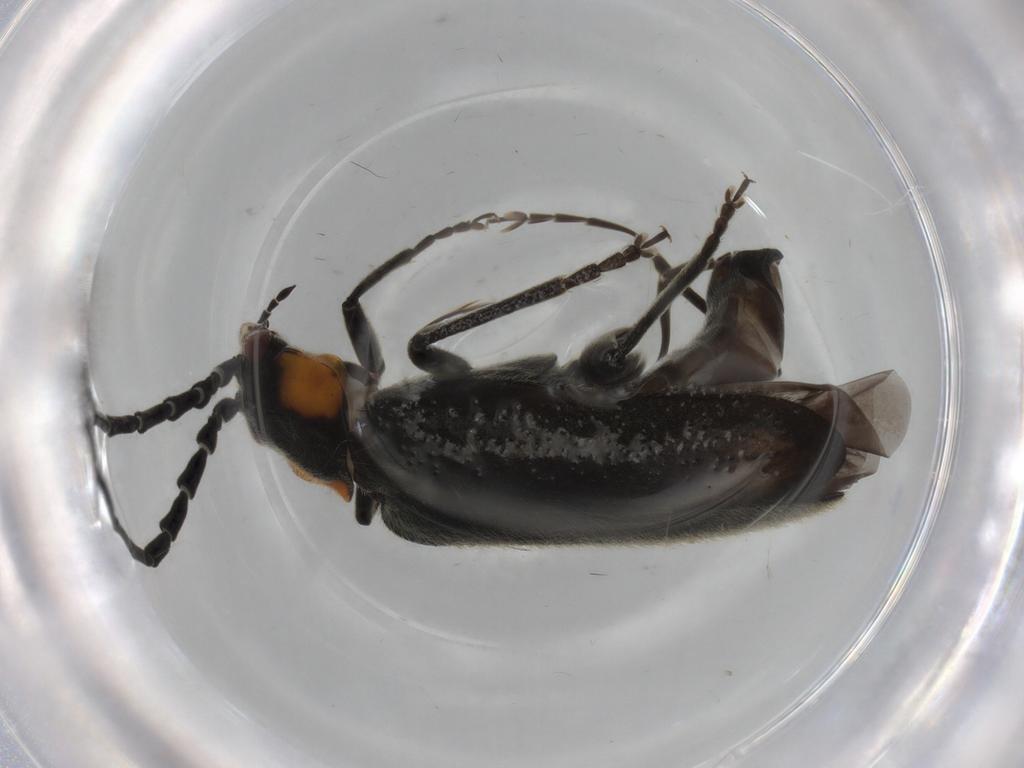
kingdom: Animalia
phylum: Arthropoda
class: Insecta
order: Coleoptera
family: Cantharidae
